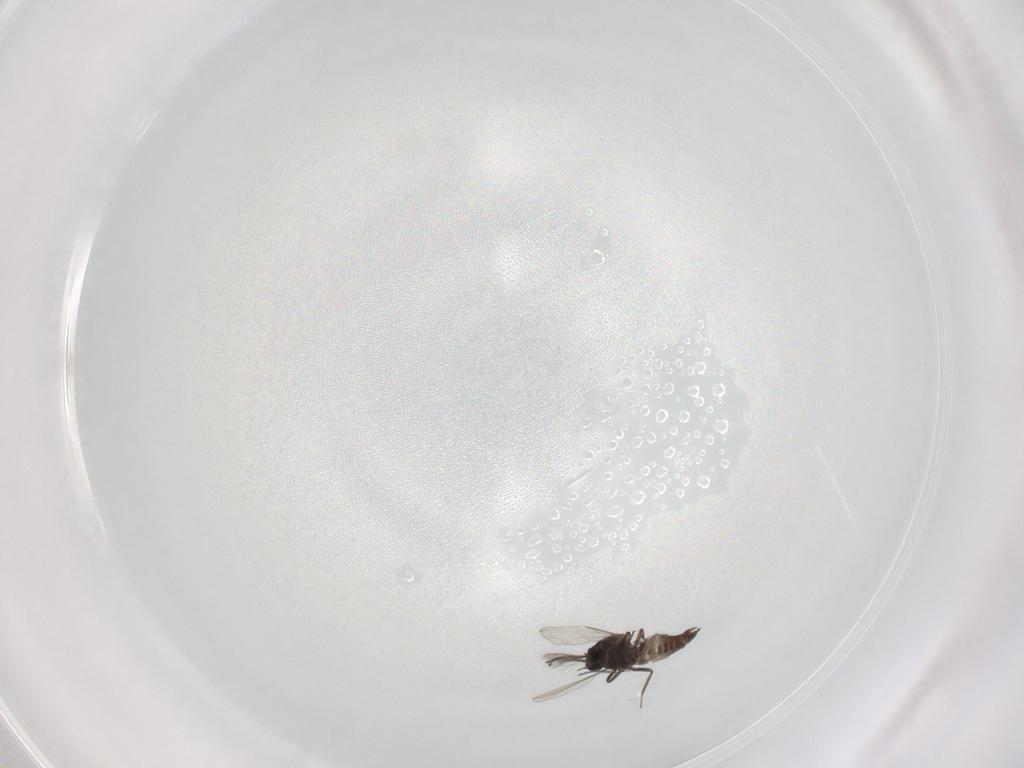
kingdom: Animalia
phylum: Arthropoda
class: Insecta
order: Diptera
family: Ceratopogonidae
